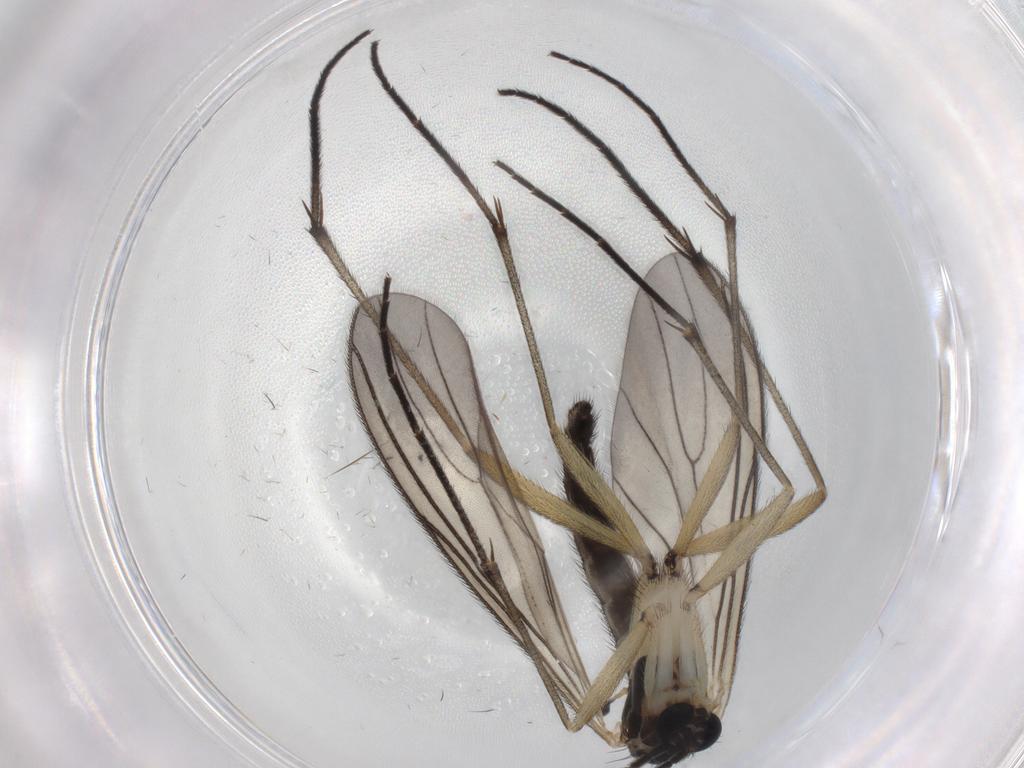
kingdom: Animalia
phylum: Arthropoda
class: Insecta
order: Diptera
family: Sciaridae
